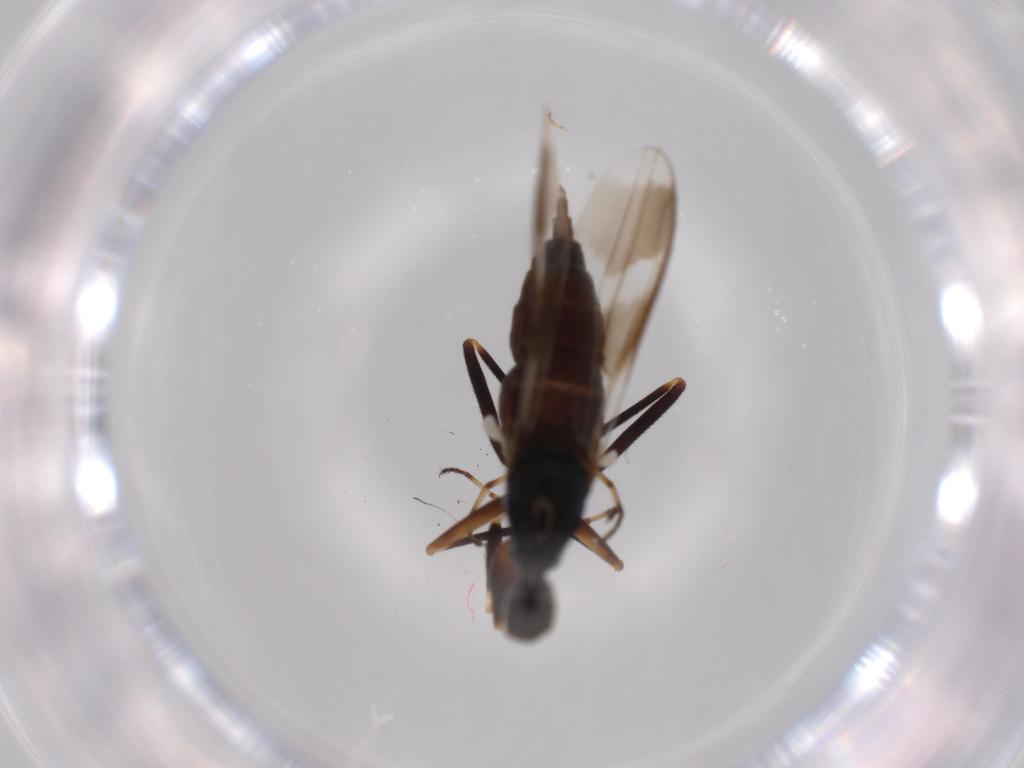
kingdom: Animalia
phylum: Arthropoda
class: Insecta
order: Diptera
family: Hybotidae
